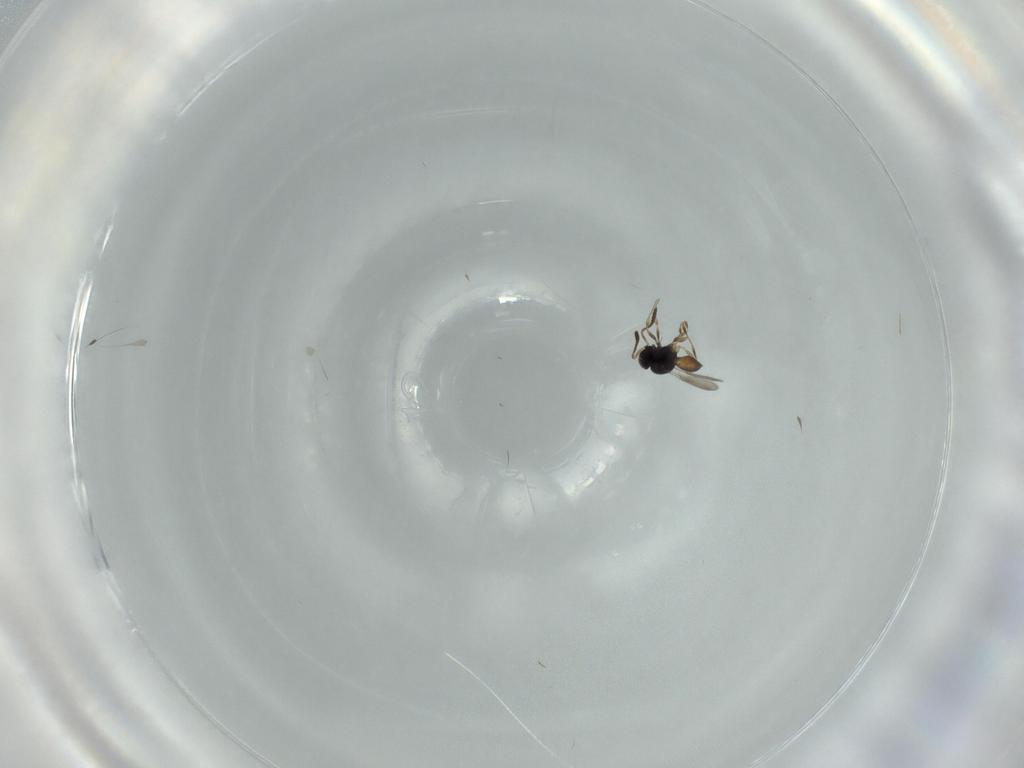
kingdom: Animalia
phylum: Arthropoda
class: Insecta
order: Hymenoptera
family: Scelionidae
